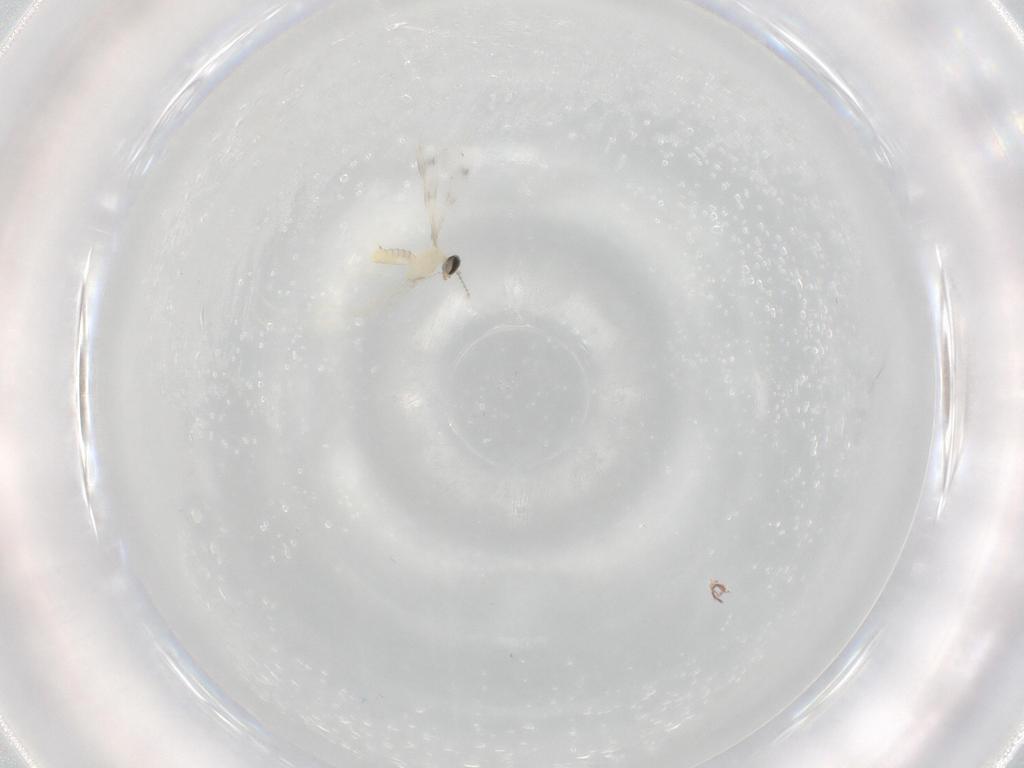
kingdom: Animalia
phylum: Arthropoda
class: Insecta
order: Diptera
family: Cecidomyiidae
